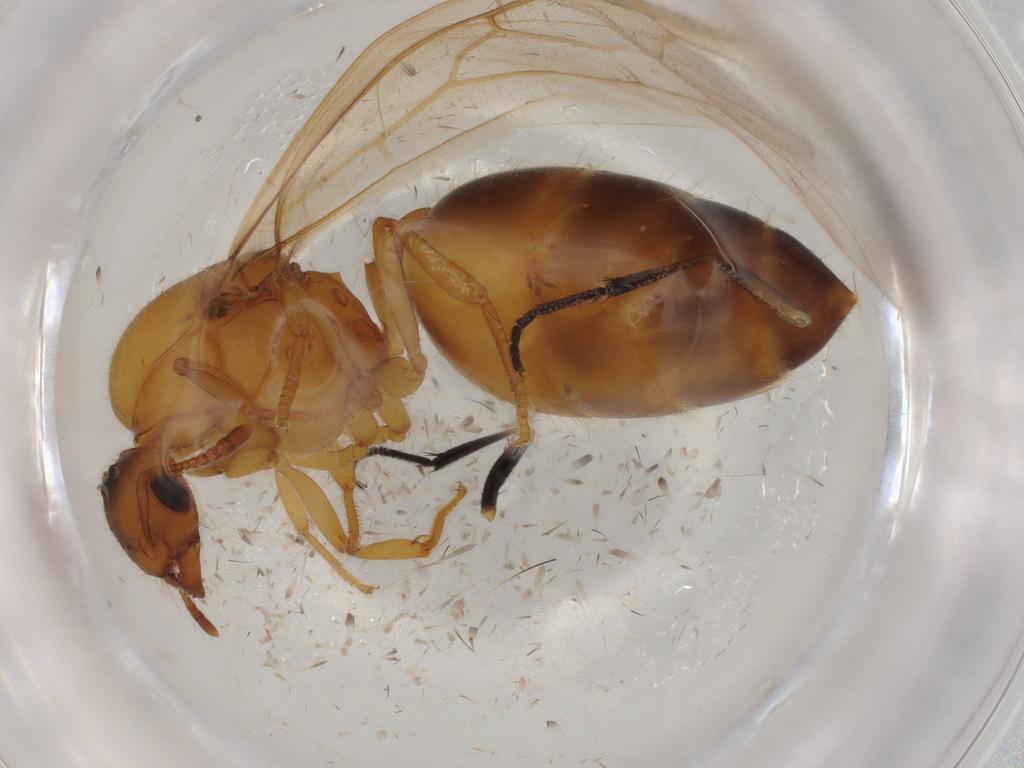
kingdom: Animalia
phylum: Arthropoda
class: Insecta
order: Hymenoptera
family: Formicidae
